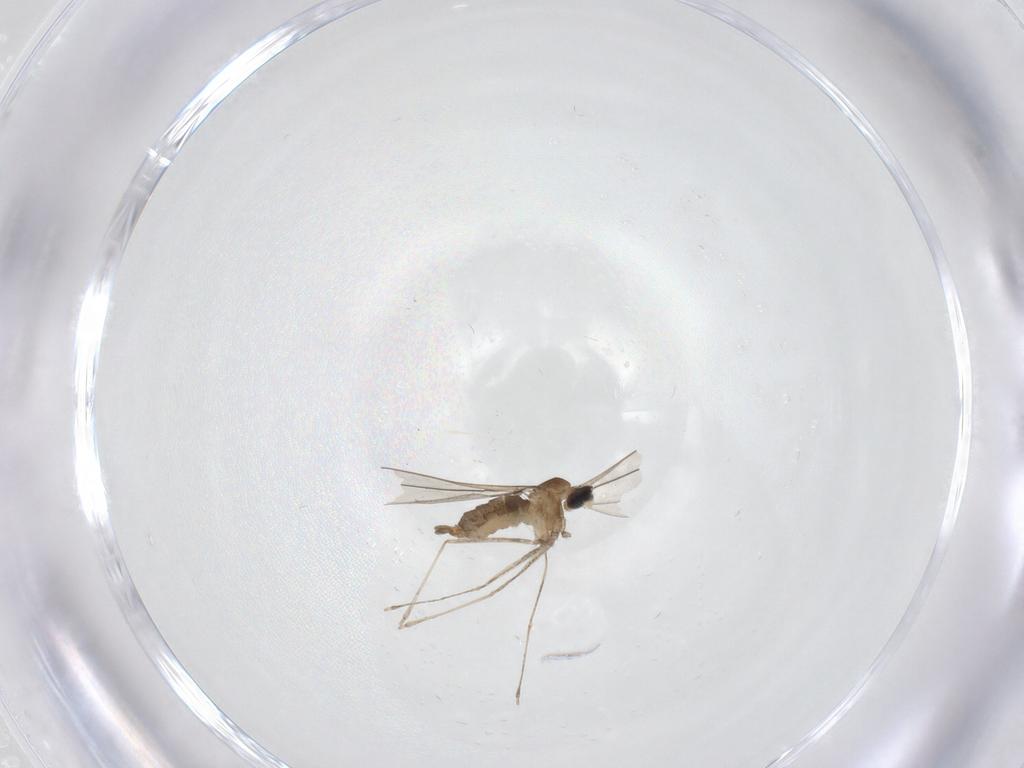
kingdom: Animalia
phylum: Arthropoda
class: Insecta
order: Diptera
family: Cecidomyiidae
